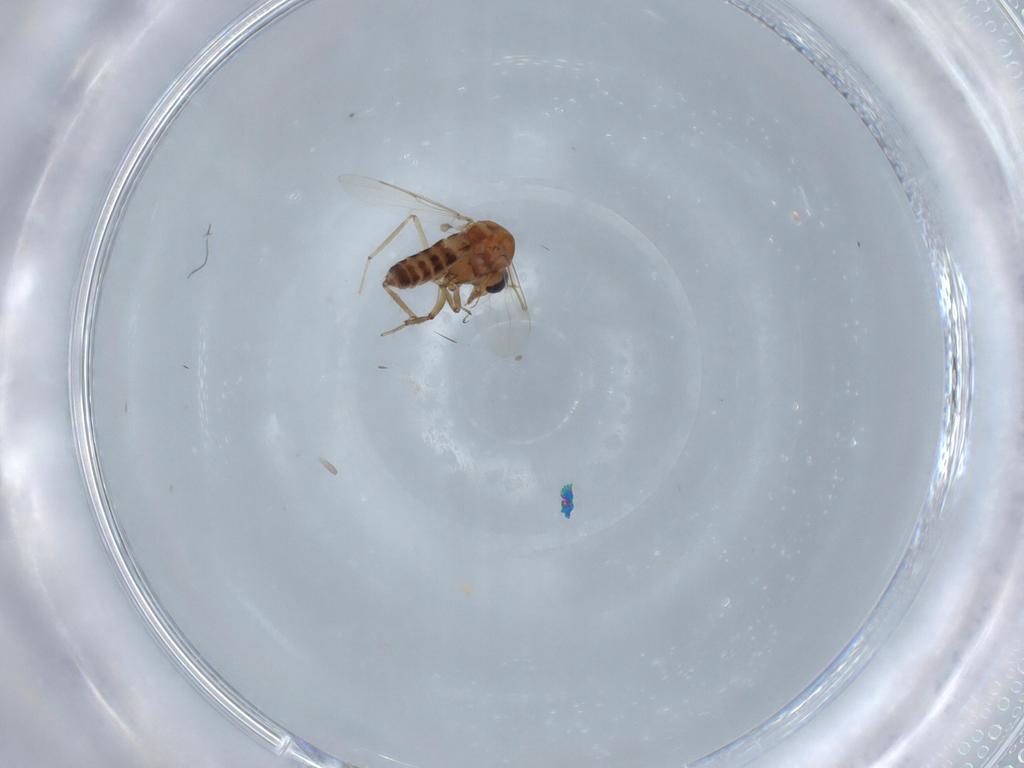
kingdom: Animalia
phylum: Arthropoda
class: Insecta
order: Diptera
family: Ceratopogonidae
